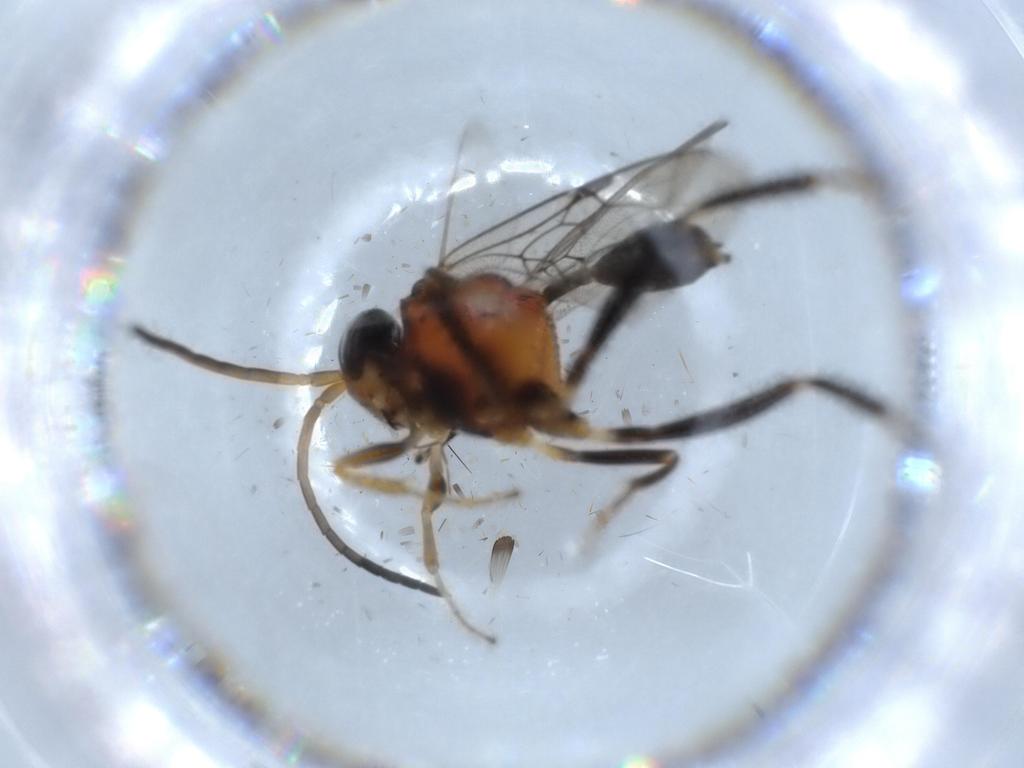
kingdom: Animalia
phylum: Arthropoda
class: Insecta
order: Hymenoptera
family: Evaniidae
